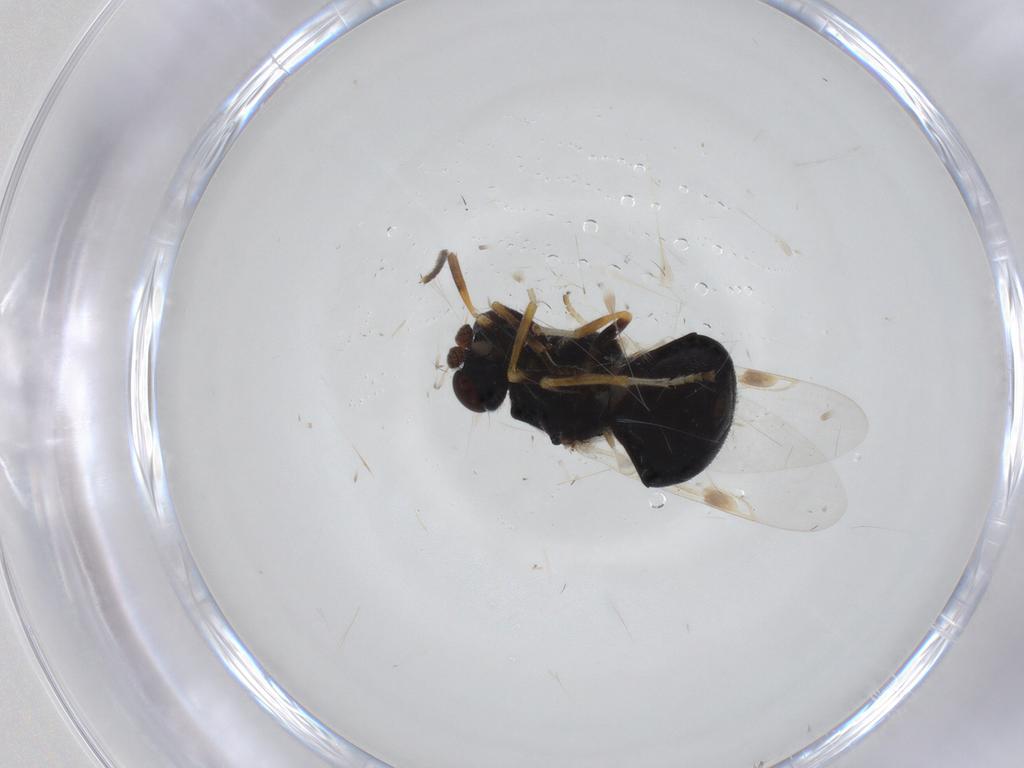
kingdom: Animalia
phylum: Arthropoda
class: Insecta
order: Diptera
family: Stratiomyidae
